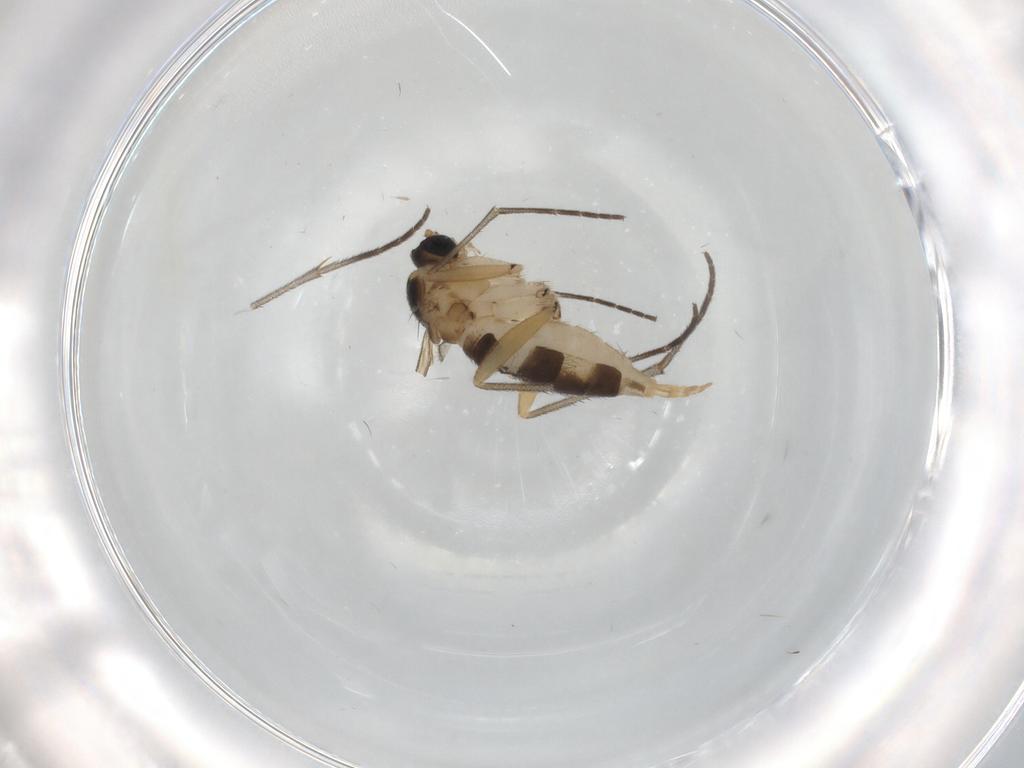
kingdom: Animalia
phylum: Arthropoda
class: Insecta
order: Diptera
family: Sciaridae
